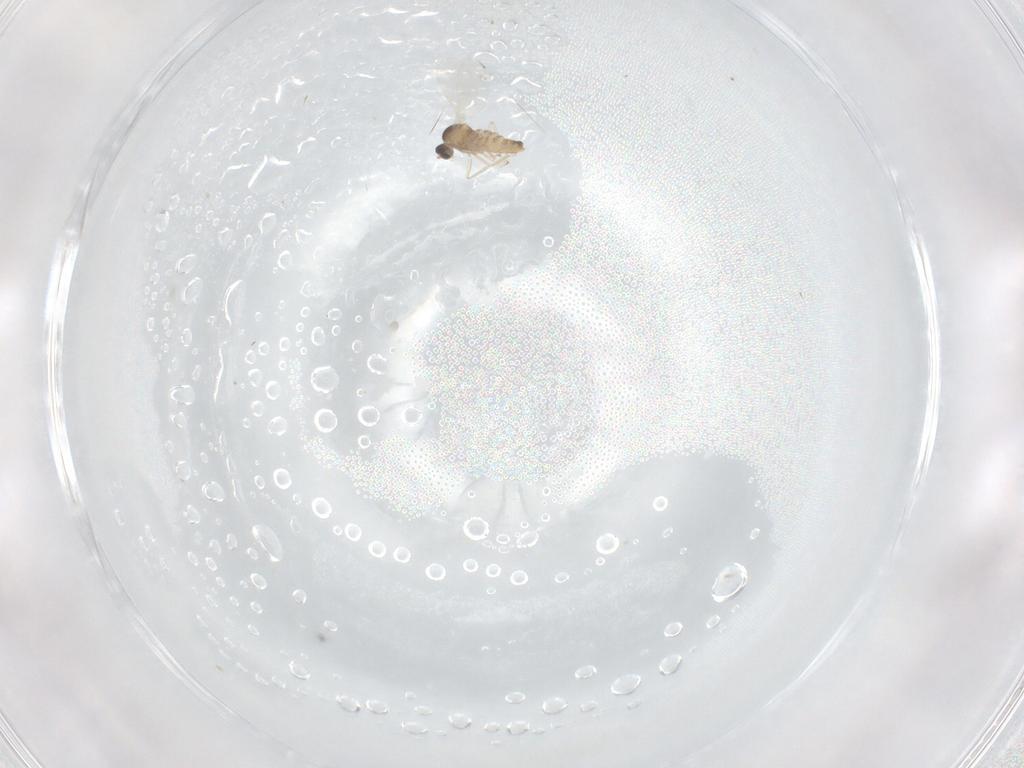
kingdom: Animalia
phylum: Arthropoda
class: Insecta
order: Diptera
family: Cecidomyiidae
